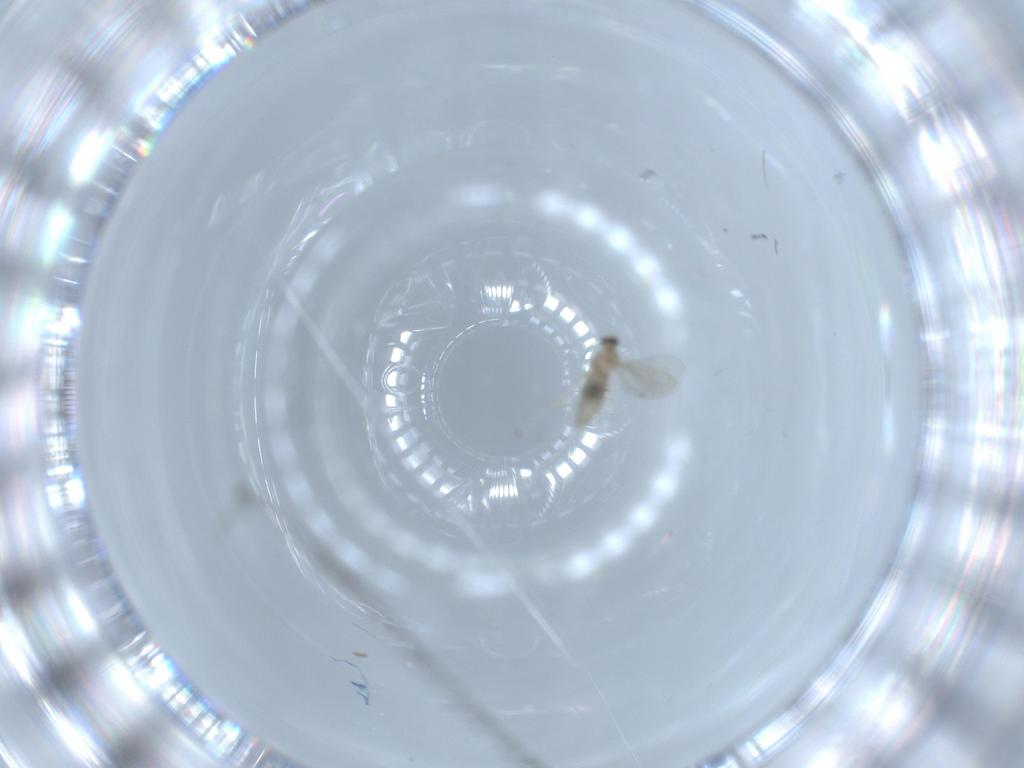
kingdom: Animalia
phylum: Arthropoda
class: Insecta
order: Diptera
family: Cecidomyiidae
